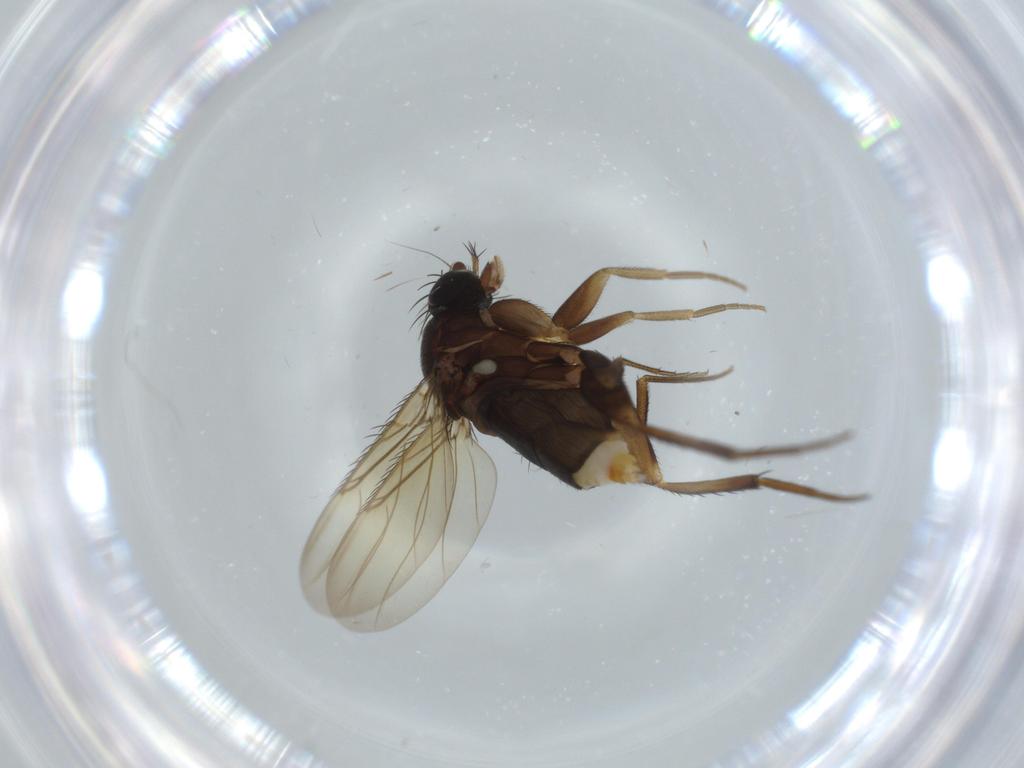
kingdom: Animalia
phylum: Arthropoda
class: Insecta
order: Diptera
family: Phoridae
